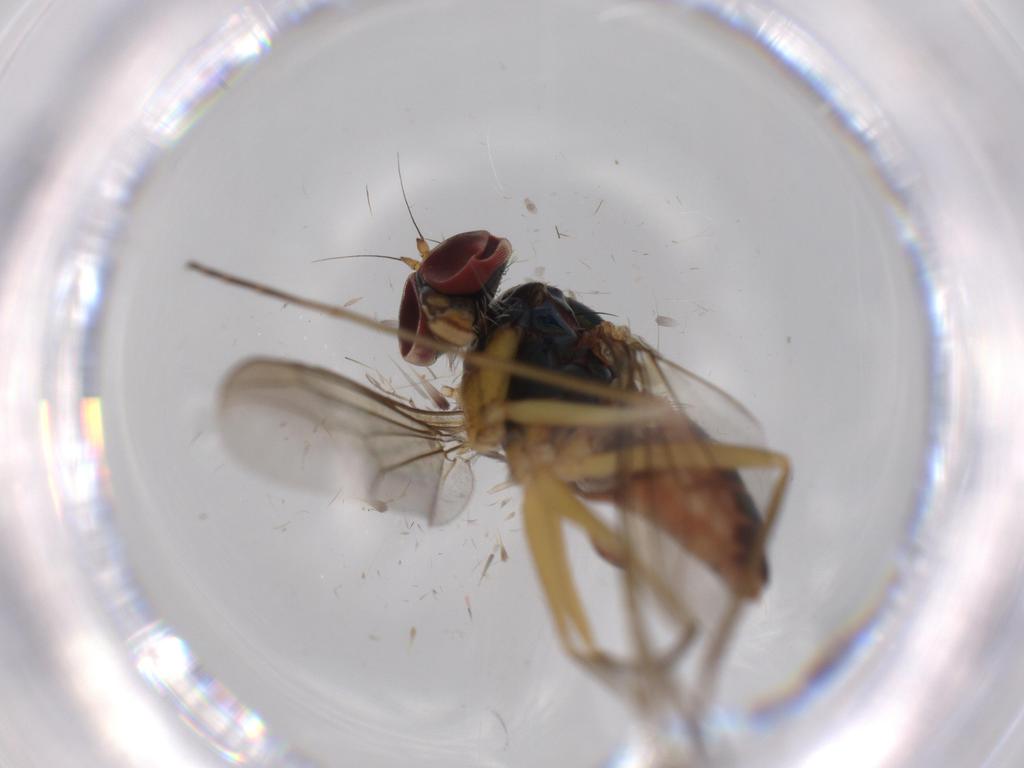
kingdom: Animalia
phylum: Arthropoda
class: Insecta
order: Diptera
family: Psychodidae
